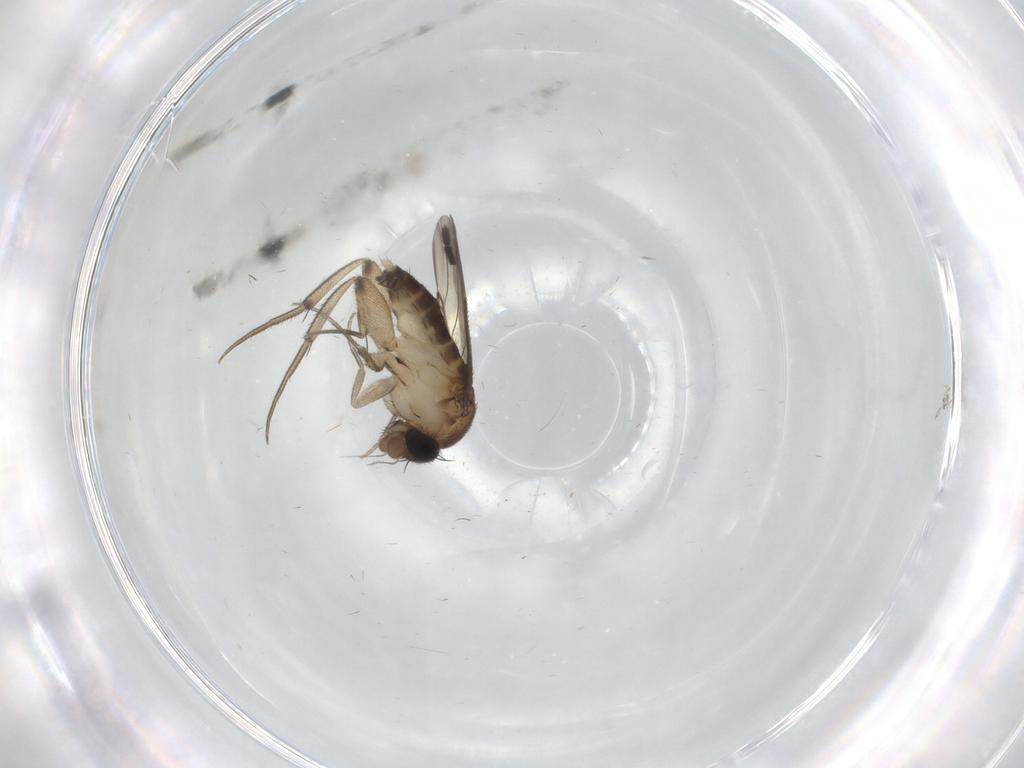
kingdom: Animalia
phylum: Arthropoda
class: Insecta
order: Diptera
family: Phoridae
